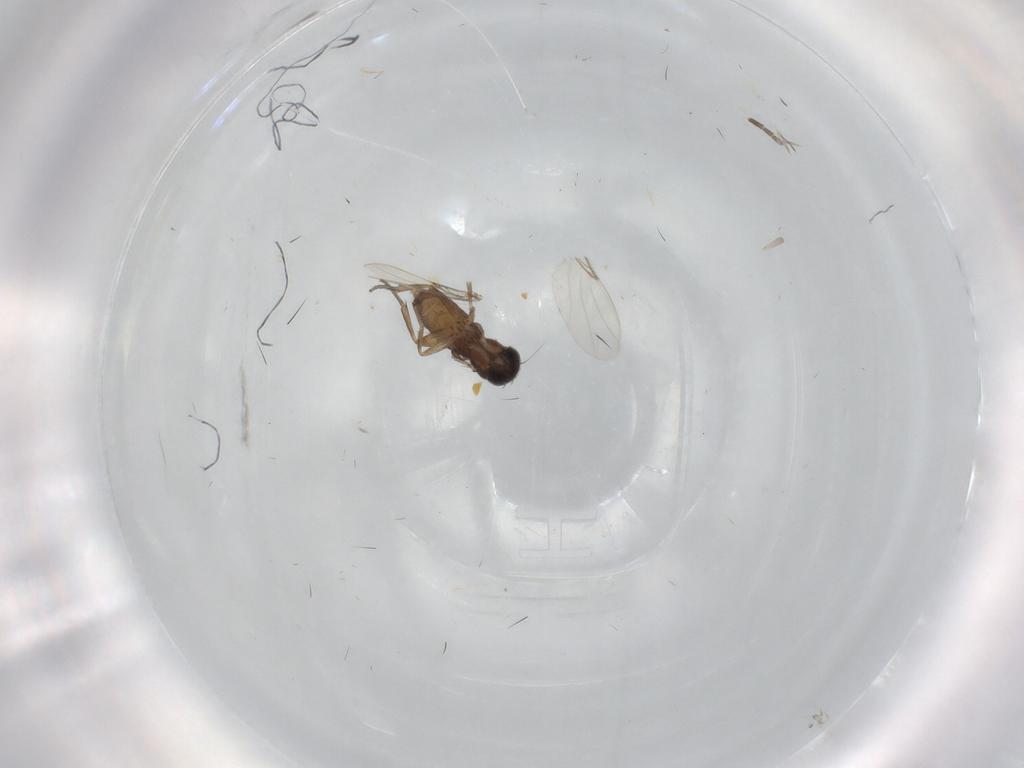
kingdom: Animalia
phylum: Arthropoda
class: Insecta
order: Diptera
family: Phoridae
